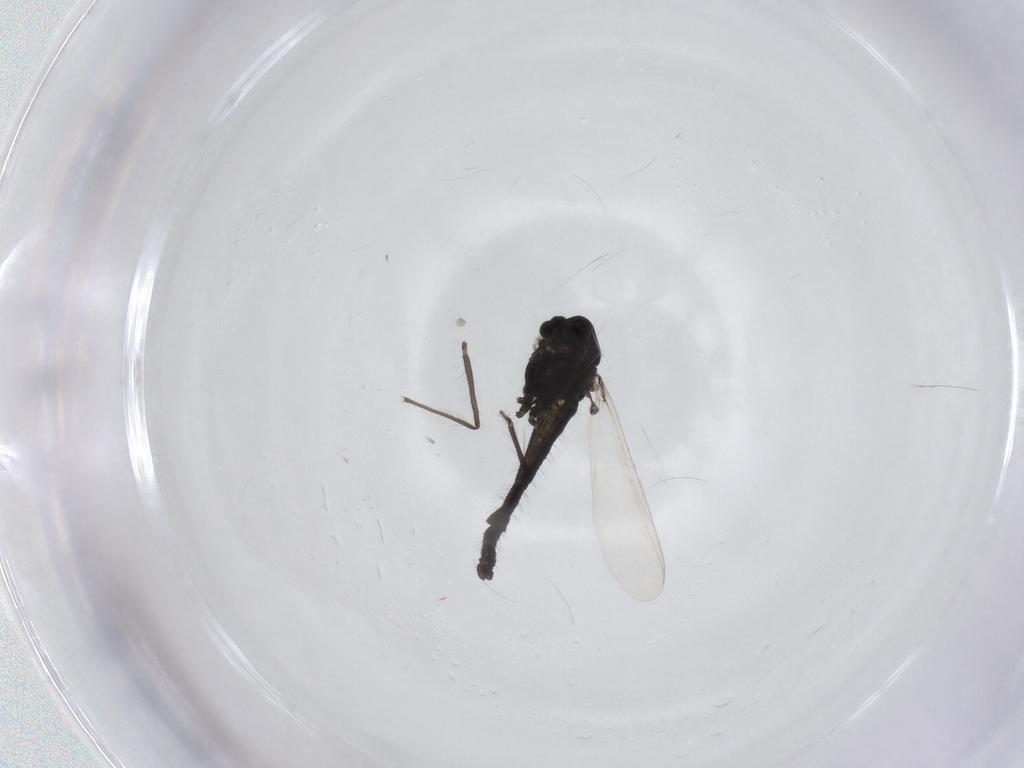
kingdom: Animalia
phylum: Arthropoda
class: Insecta
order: Diptera
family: Chironomidae
